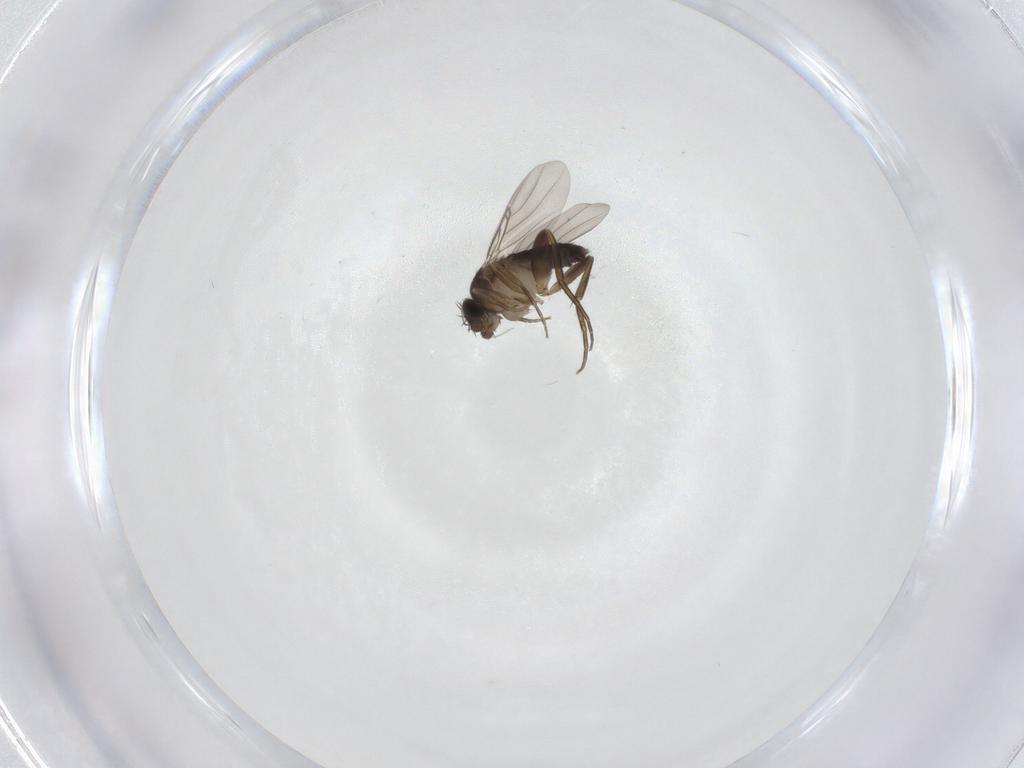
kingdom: Animalia
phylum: Arthropoda
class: Insecta
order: Diptera
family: Phoridae
